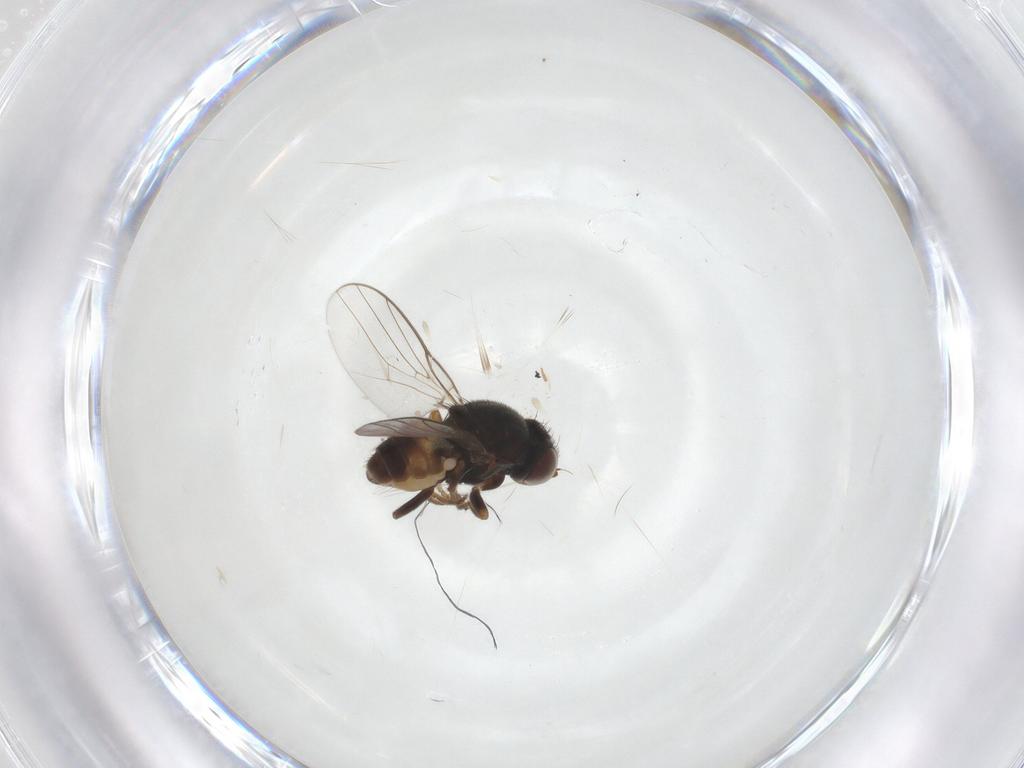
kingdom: Animalia
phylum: Arthropoda
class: Insecta
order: Diptera
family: Chloropidae
